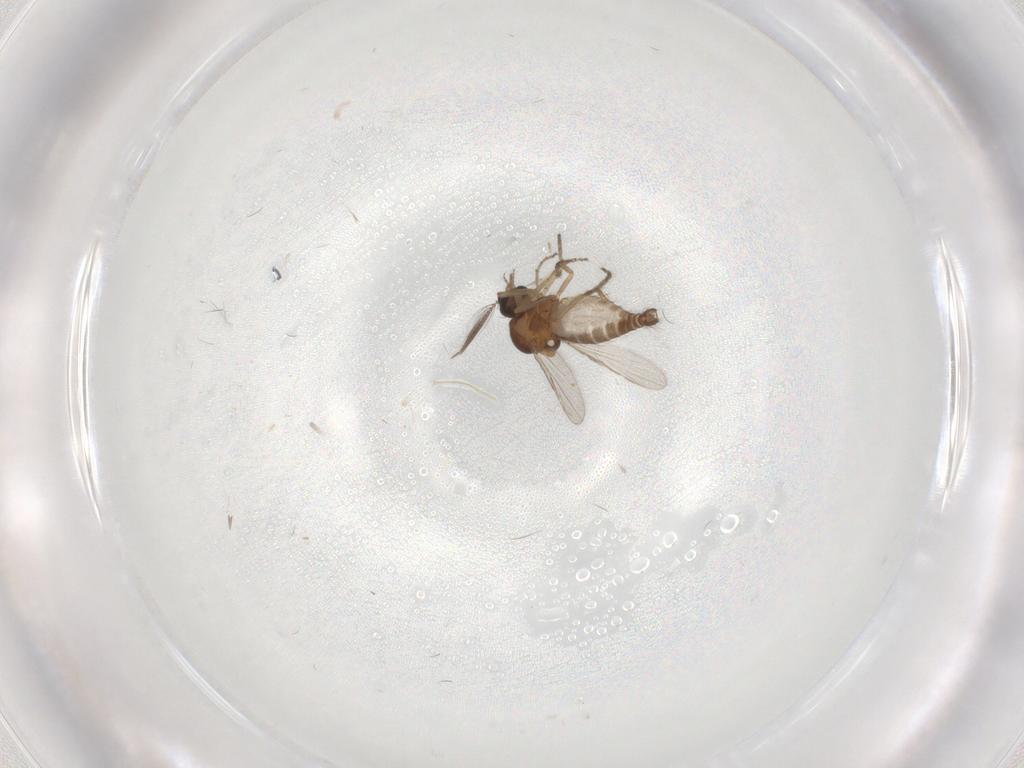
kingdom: Animalia
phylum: Arthropoda
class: Insecta
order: Diptera
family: Ceratopogonidae
